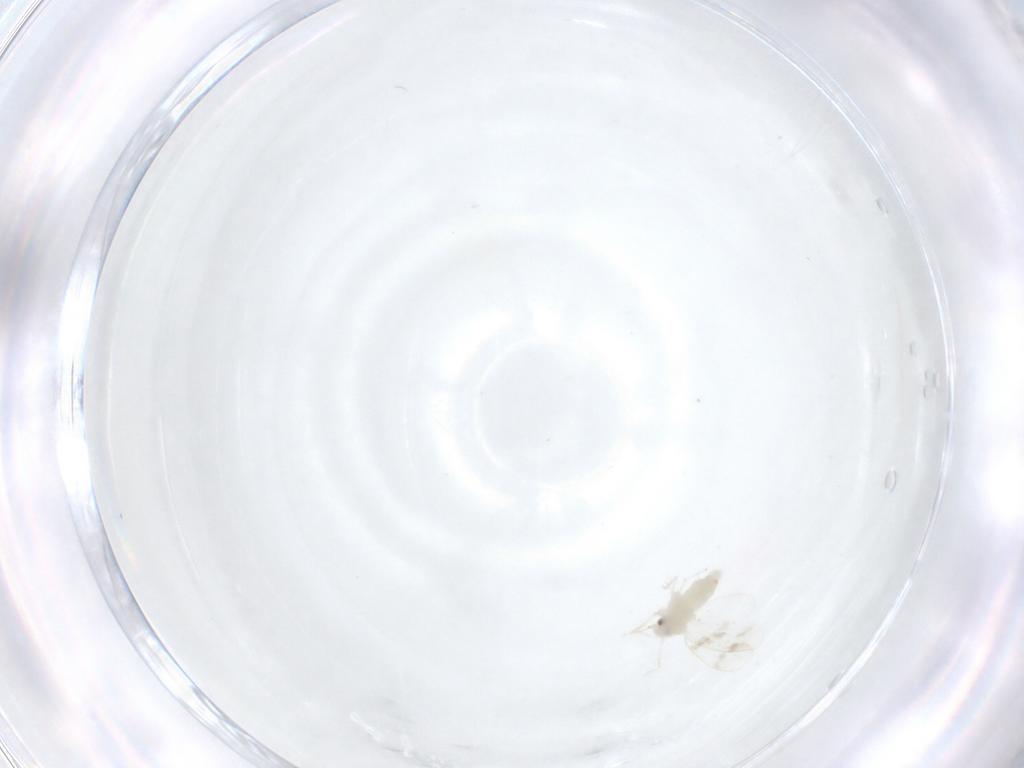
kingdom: Animalia
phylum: Arthropoda
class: Insecta
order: Hemiptera
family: Aleyrodidae
